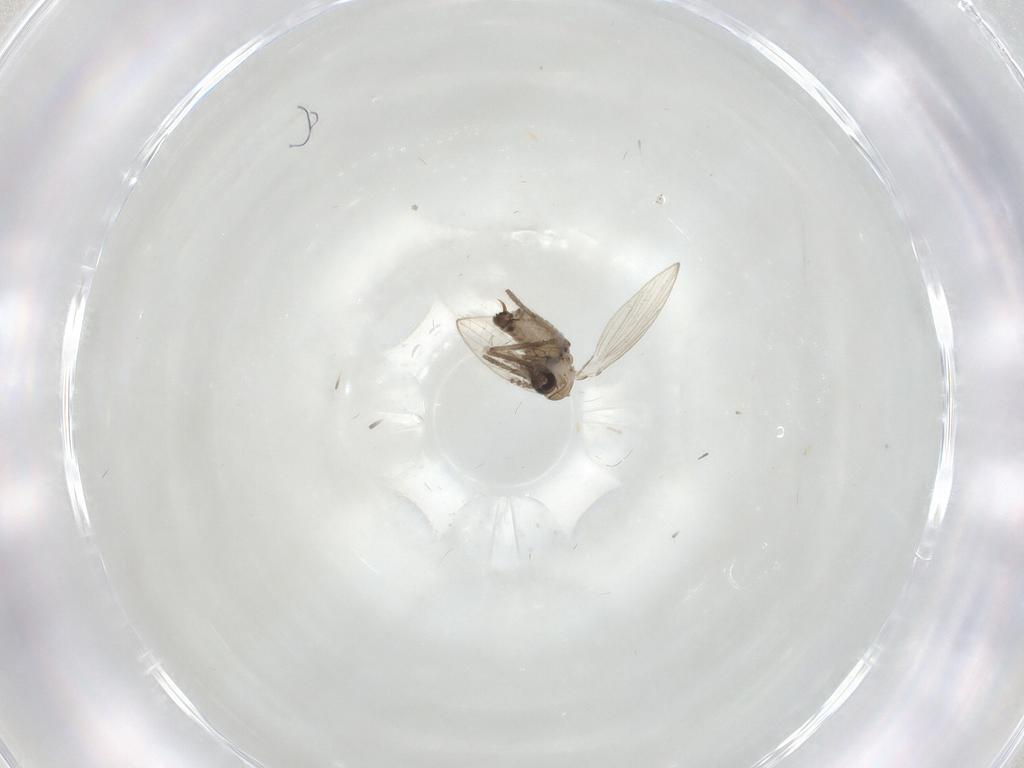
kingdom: Animalia
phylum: Arthropoda
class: Insecta
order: Diptera
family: Psychodidae
